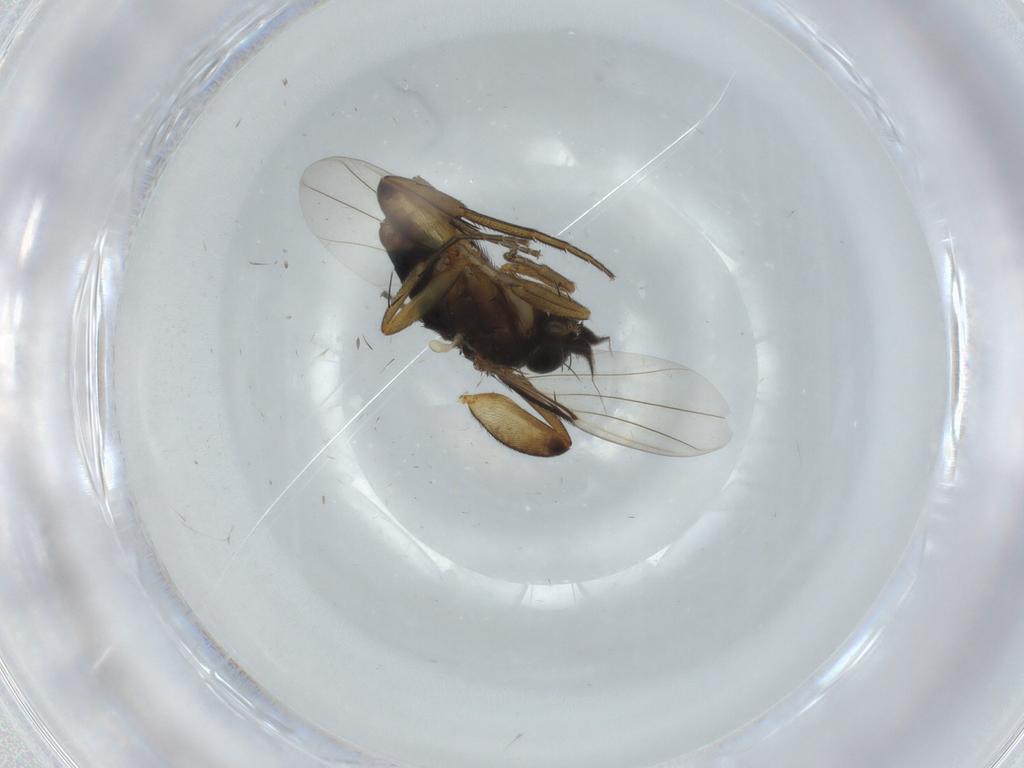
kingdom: Animalia
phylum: Arthropoda
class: Insecta
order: Diptera
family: Phoridae
